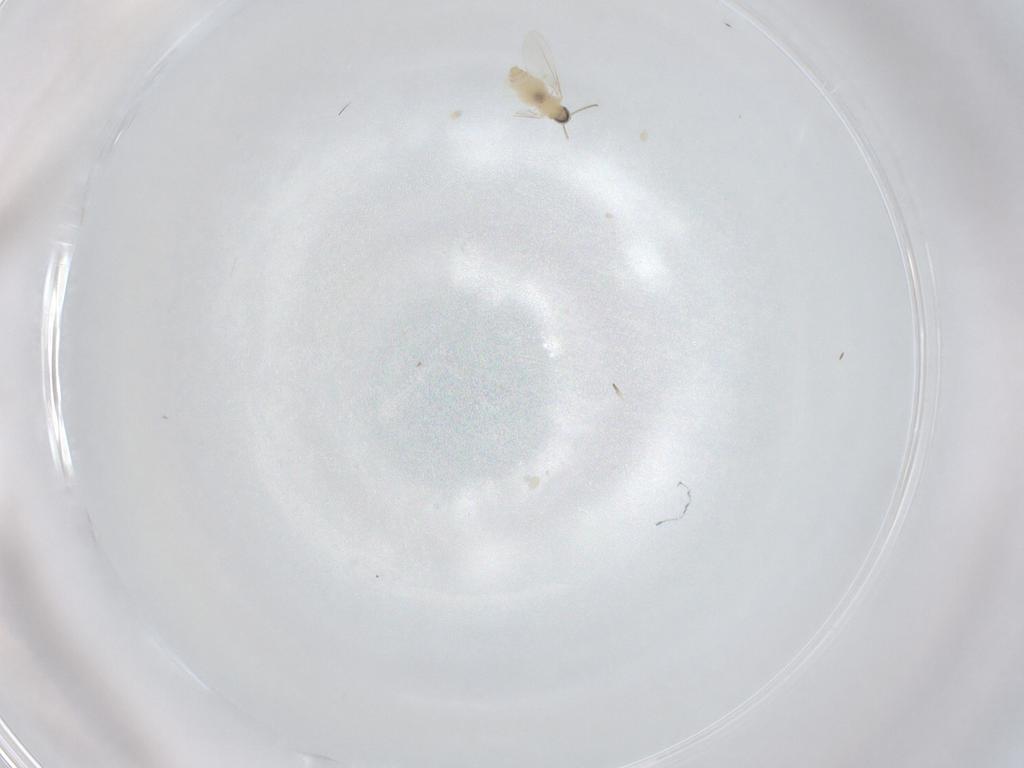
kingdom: Animalia
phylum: Arthropoda
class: Insecta
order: Diptera
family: Cecidomyiidae
